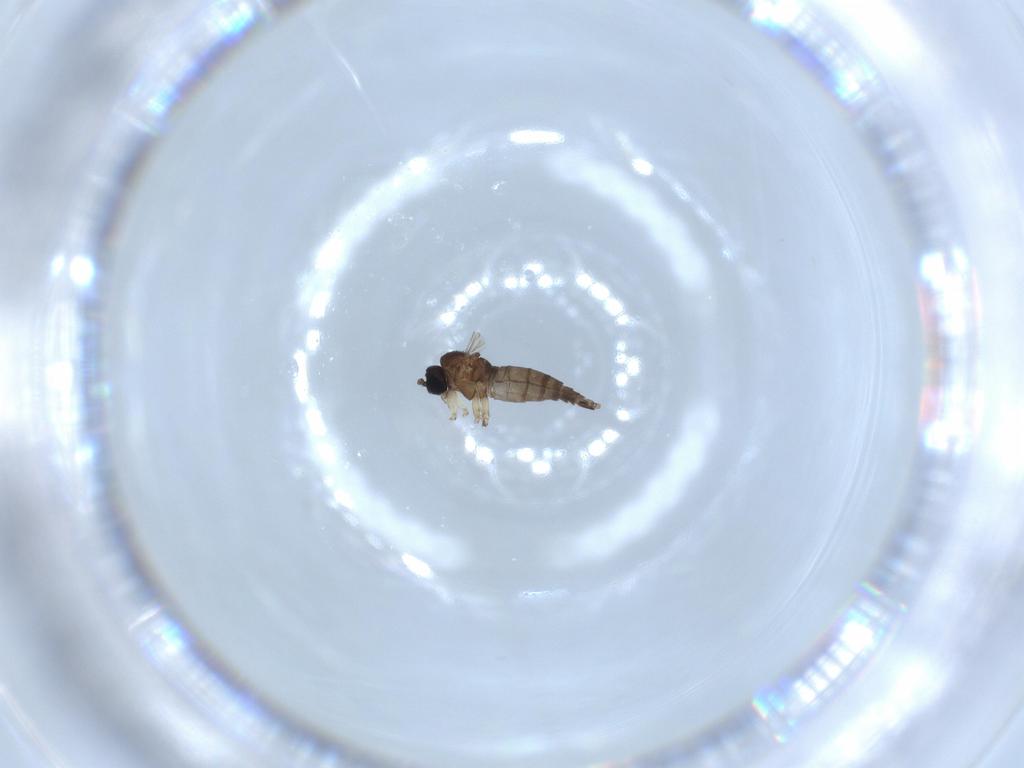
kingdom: Animalia
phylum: Arthropoda
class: Insecta
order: Diptera
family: Sciaridae
